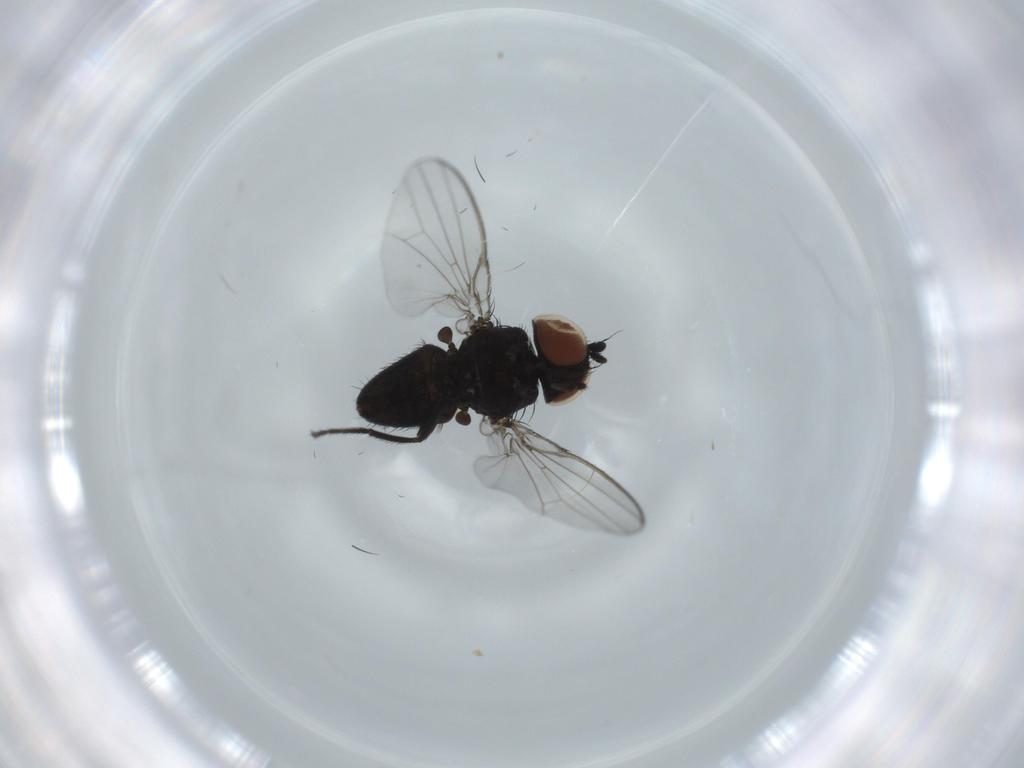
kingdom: Animalia
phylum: Arthropoda
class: Insecta
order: Diptera
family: Milichiidae
